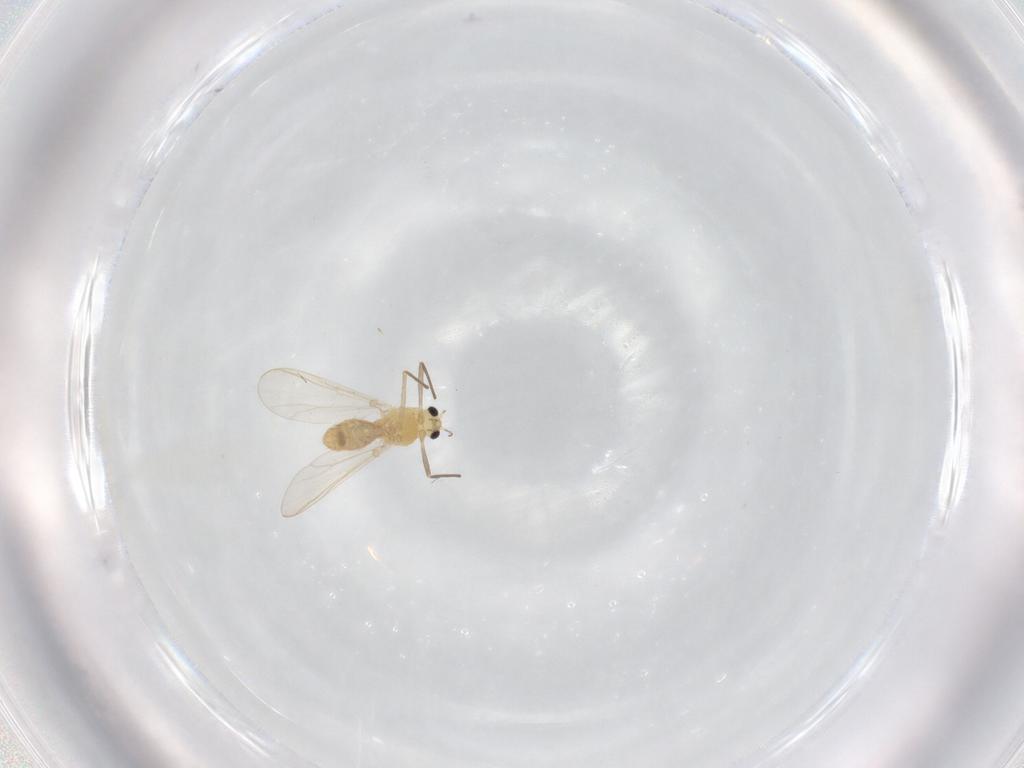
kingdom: Animalia
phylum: Arthropoda
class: Insecta
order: Diptera
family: Chironomidae
